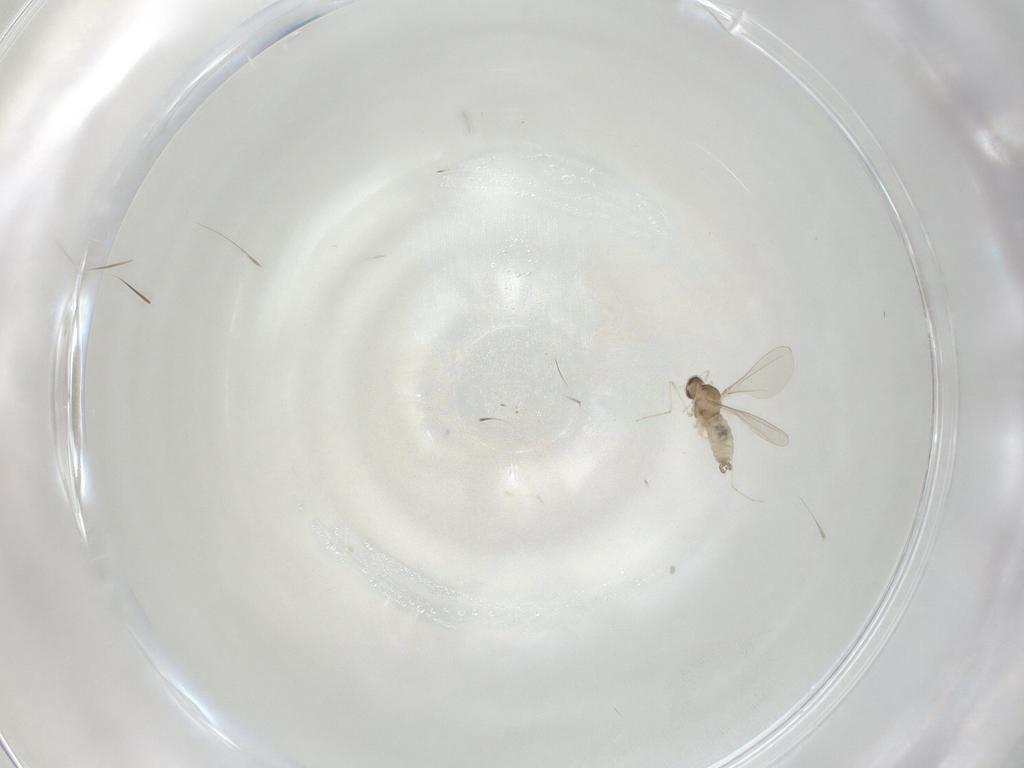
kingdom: Animalia
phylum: Arthropoda
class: Insecta
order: Diptera
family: Cecidomyiidae
